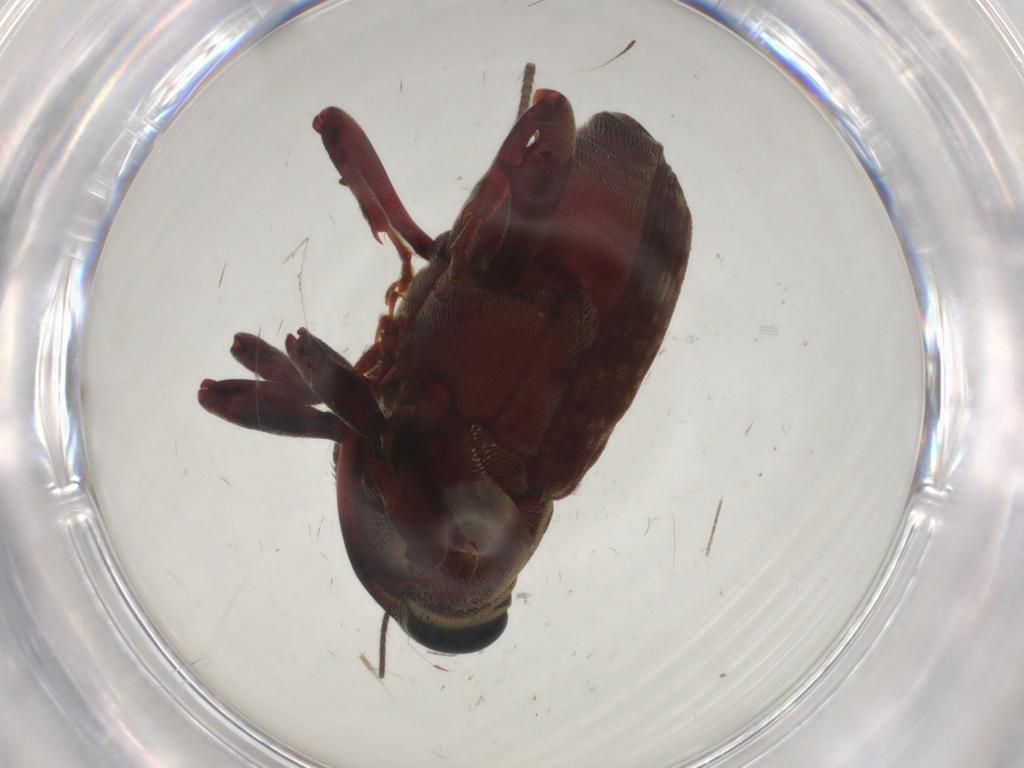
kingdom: Animalia
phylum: Arthropoda
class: Insecta
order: Coleoptera
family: Curculionidae
